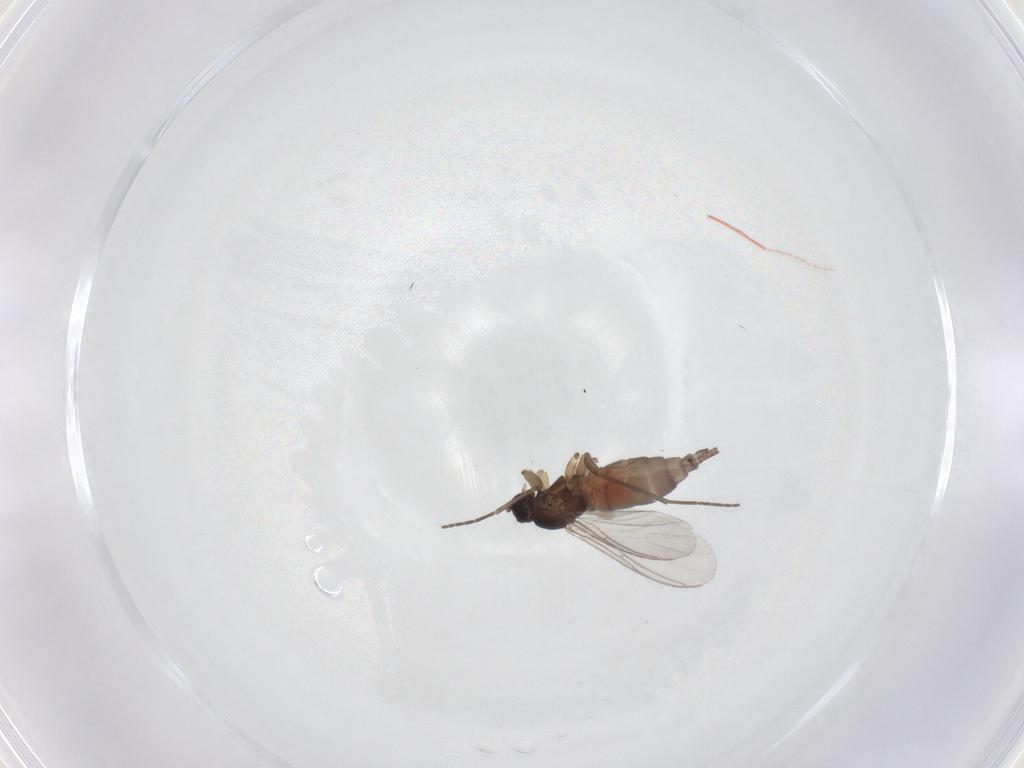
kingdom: Animalia
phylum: Arthropoda
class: Insecta
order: Diptera
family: Sciaridae
